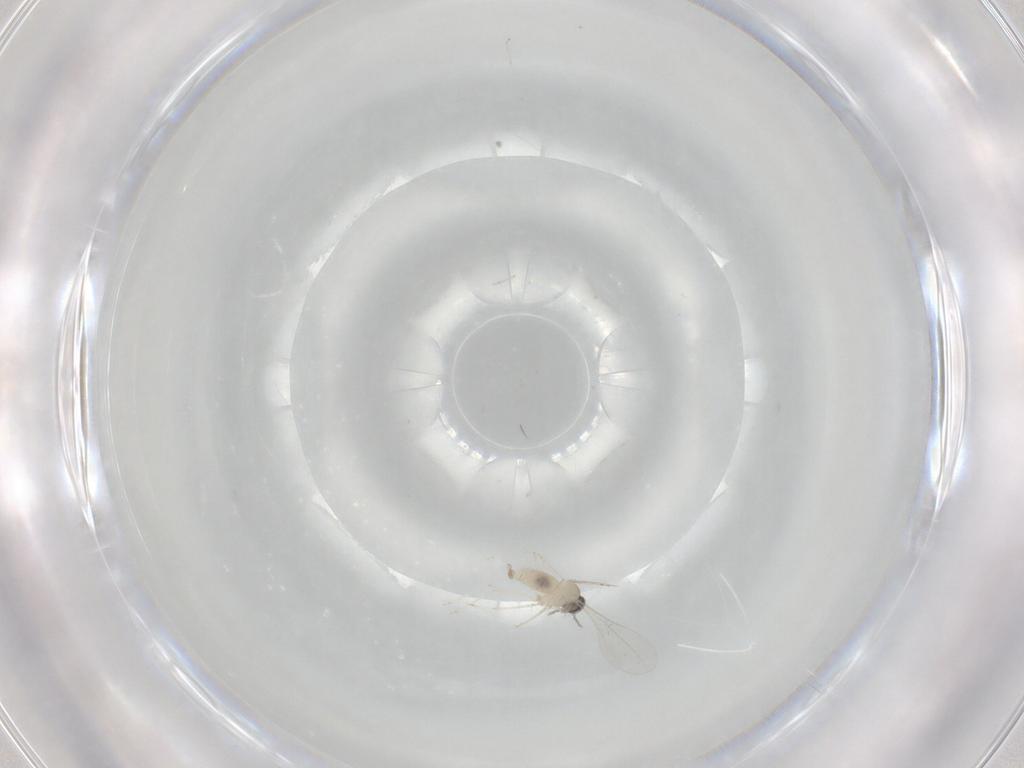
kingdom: Animalia
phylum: Arthropoda
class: Insecta
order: Diptera
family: Cecidomyiidae
